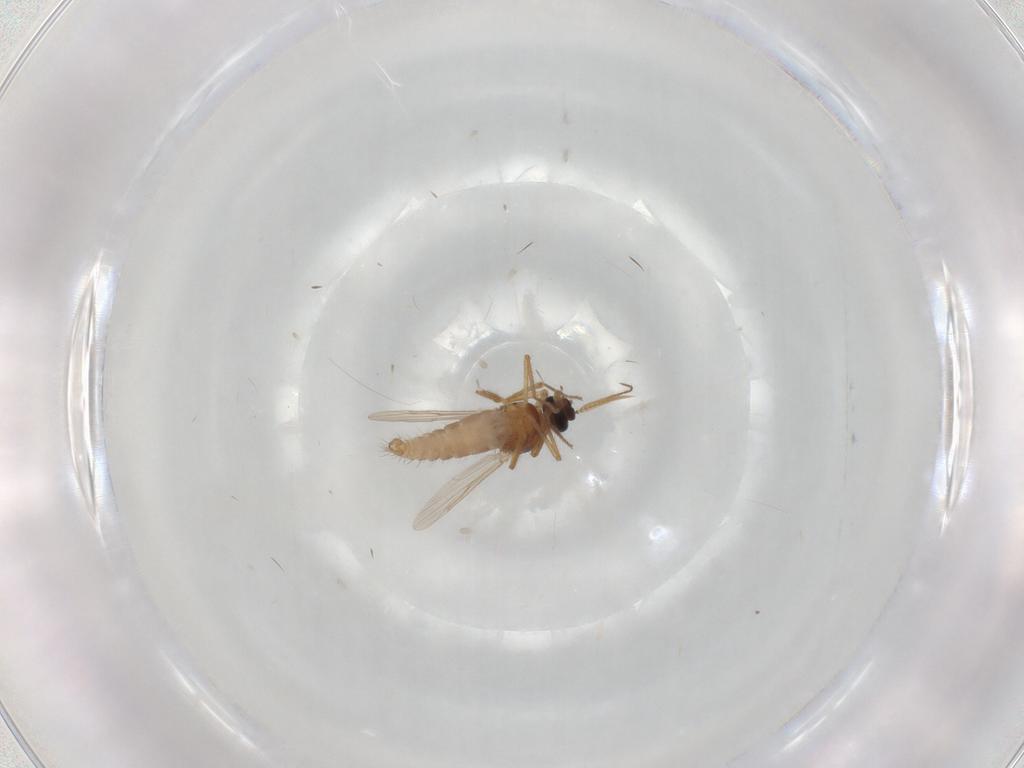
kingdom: Animalia
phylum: Arthropoda
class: Insecta
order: Diptera
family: Ceratopogonidae
